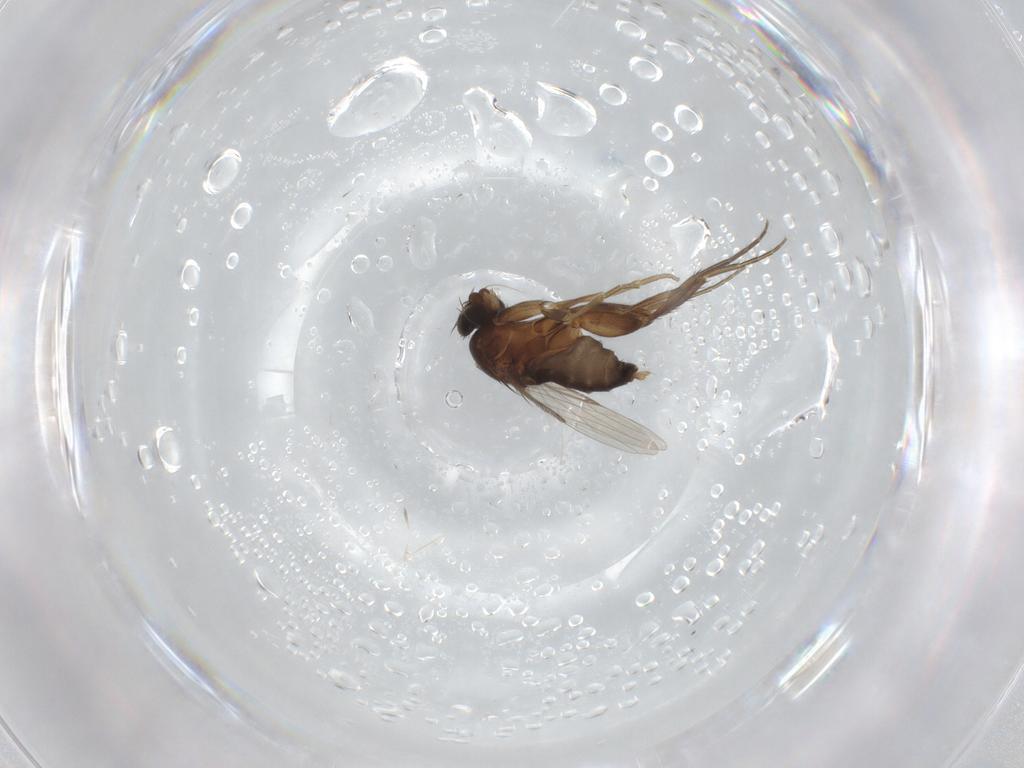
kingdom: Animalia
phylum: Arthropoda
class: Insecta
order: Diptera
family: Phoridae
